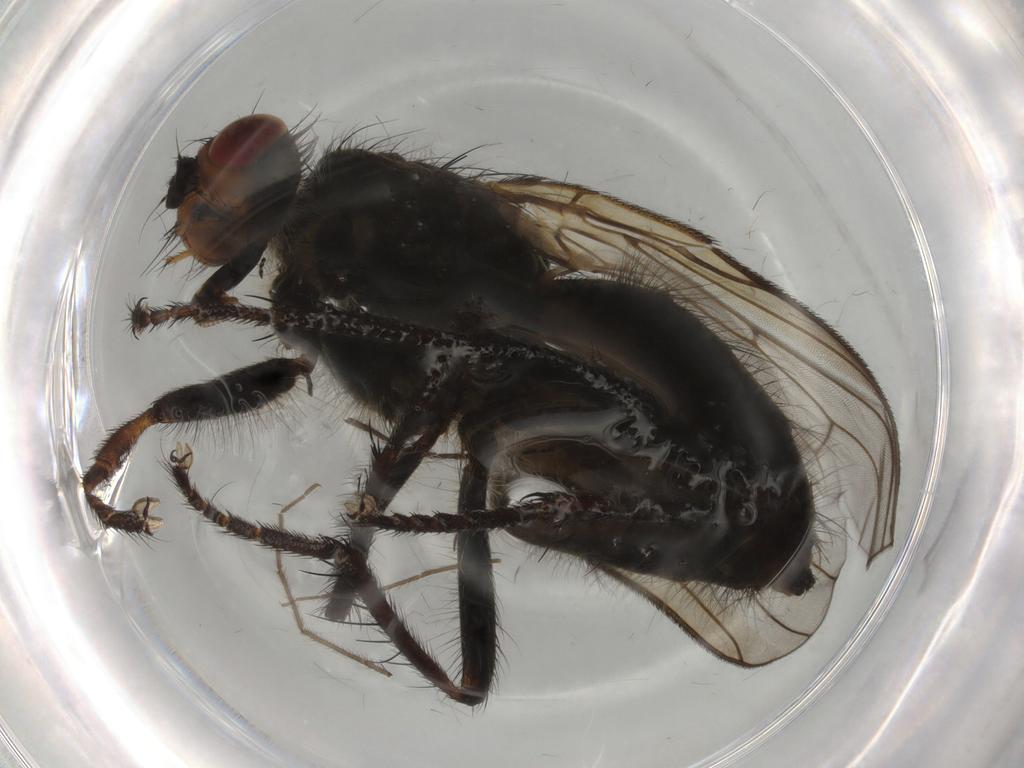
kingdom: Animalia
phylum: Arthropoda
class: Insecta
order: Diptera
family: Scathophagidae
